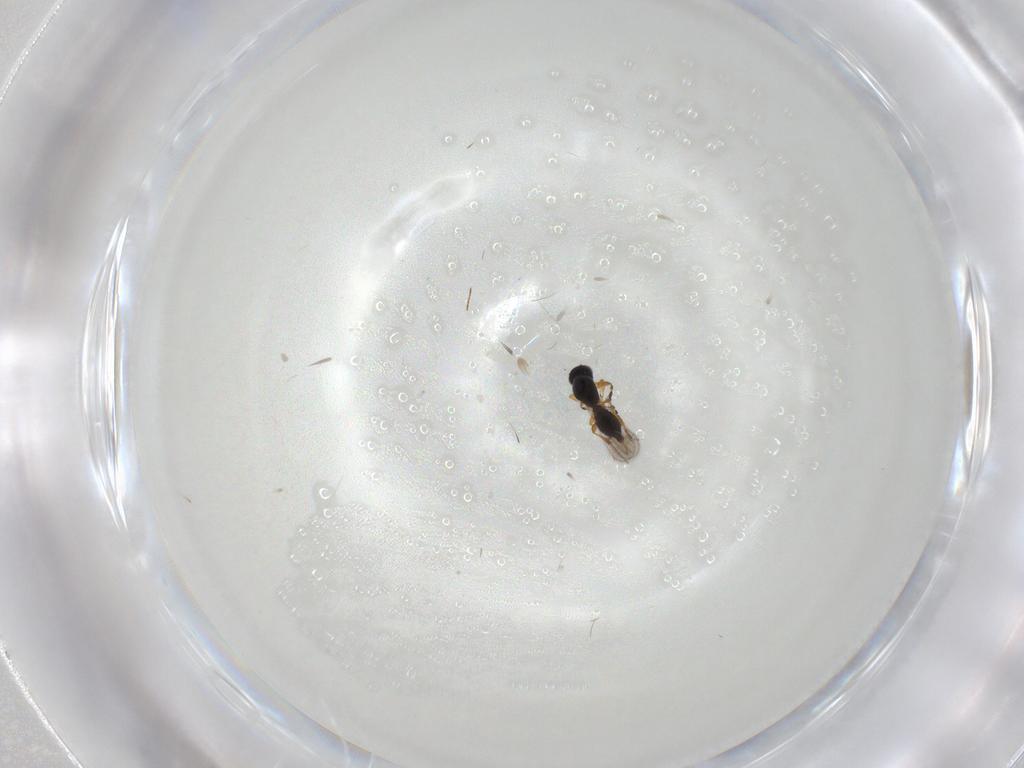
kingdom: Animalia
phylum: Arthropoda
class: Insecta
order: Hymenoptera
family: Platygastridae
